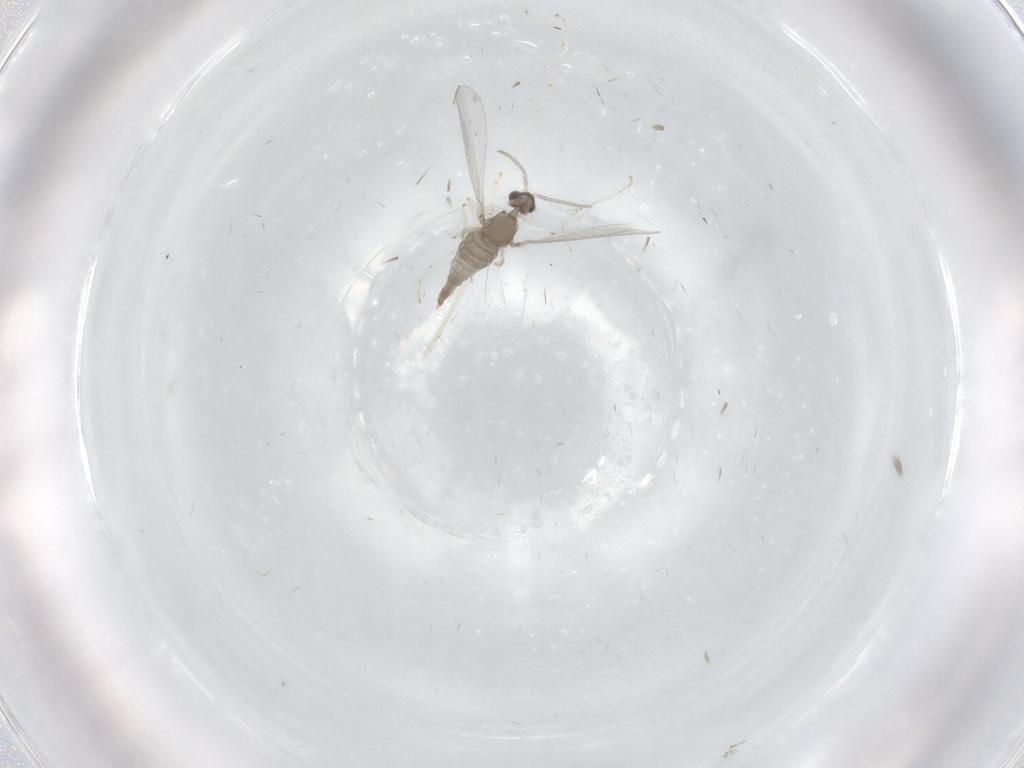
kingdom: Animalia
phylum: Arthropoda
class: Insecta
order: Diptera
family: Cecidomyiidae
